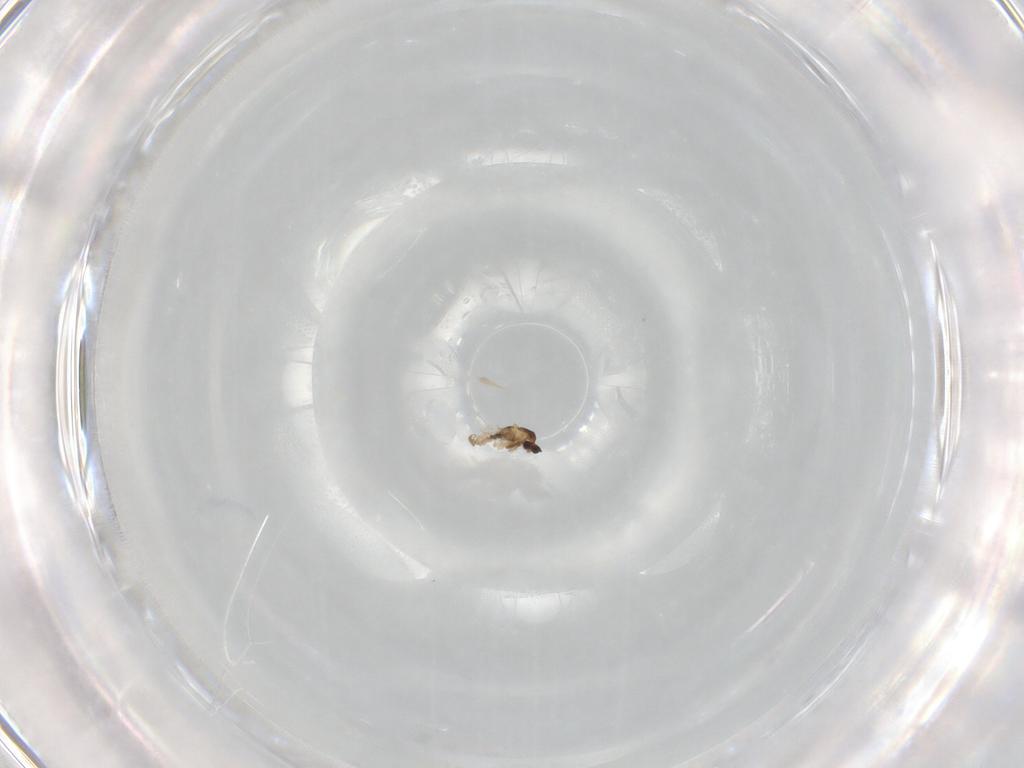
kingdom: Animalia
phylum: Arthropoda
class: Insecta
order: Diptera
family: Cecidomyiidae
